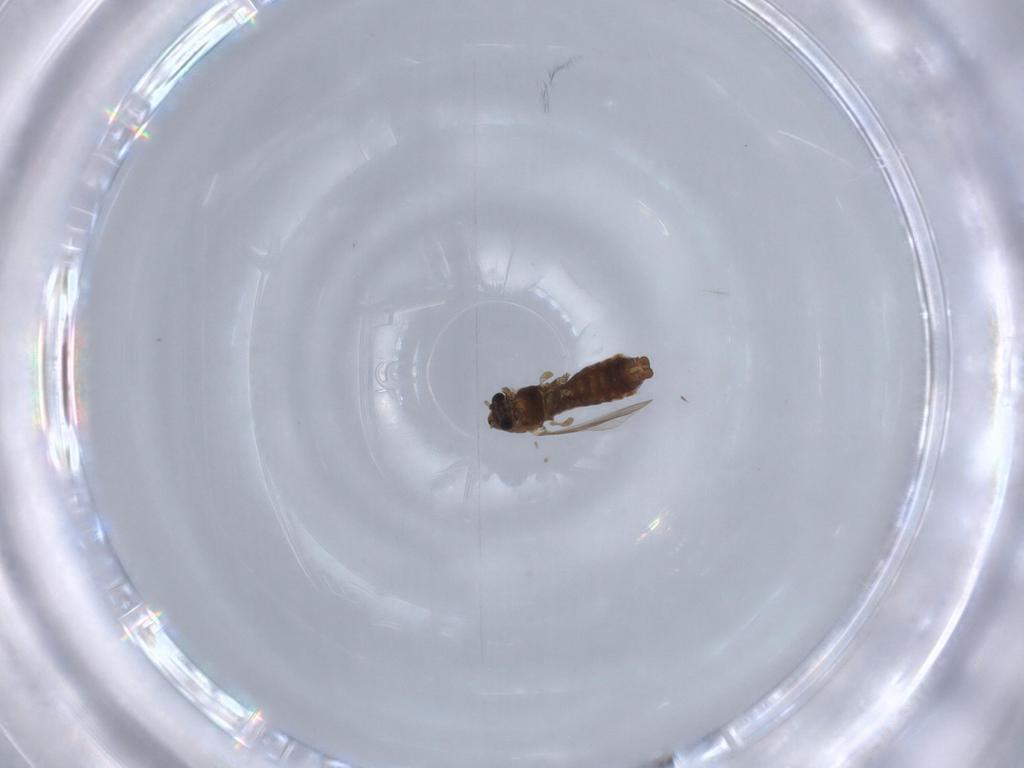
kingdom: Animalia
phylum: Arthropoda
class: Insecta
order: Diptera
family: Chironomidae
